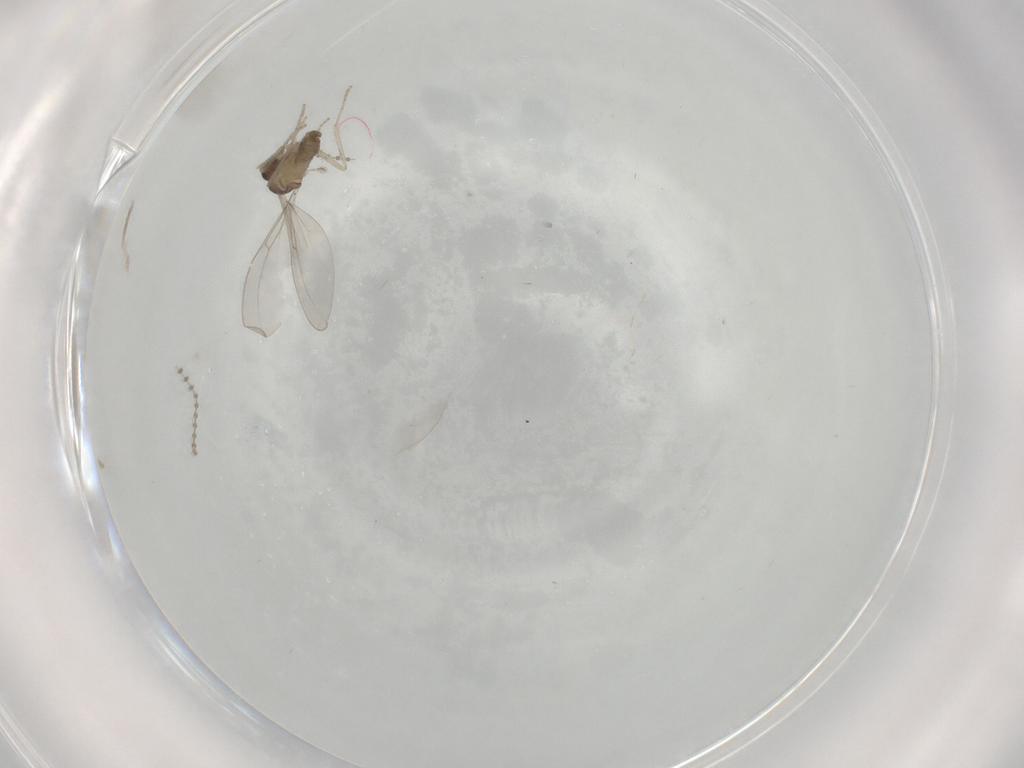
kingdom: Animalia
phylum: Arthropoda
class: Insecta
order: Diptera
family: Cecidomyiidae
